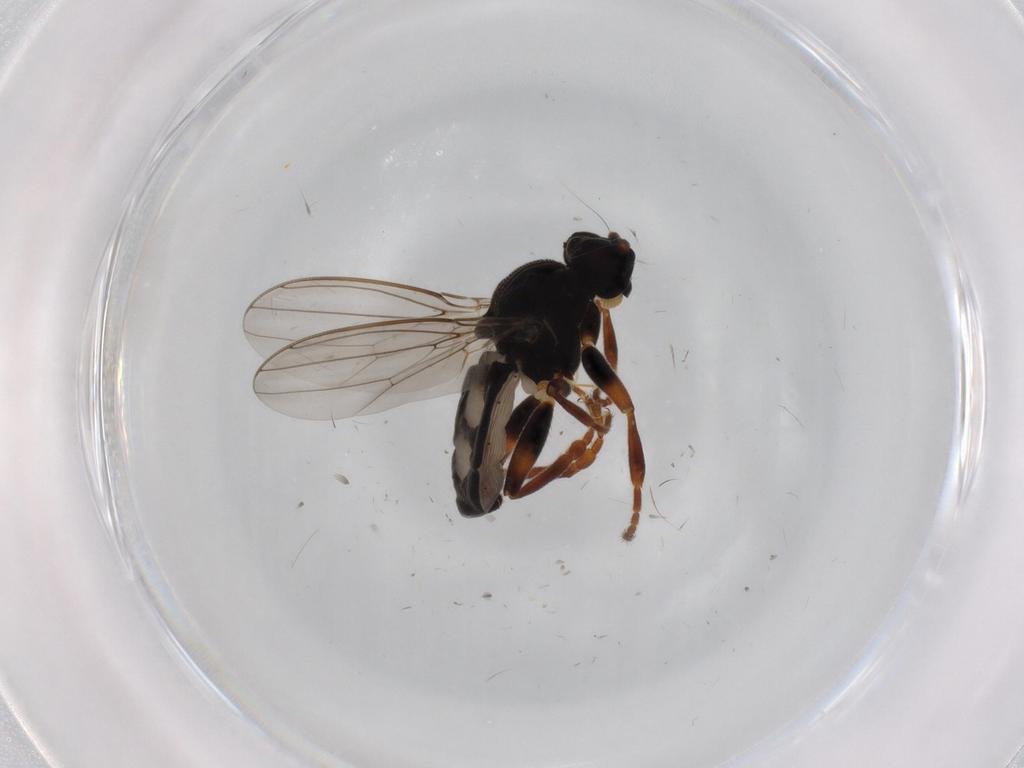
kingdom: Animalia
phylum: Arthropoda
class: Insecta
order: Diptera
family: Sphaeroceridae
